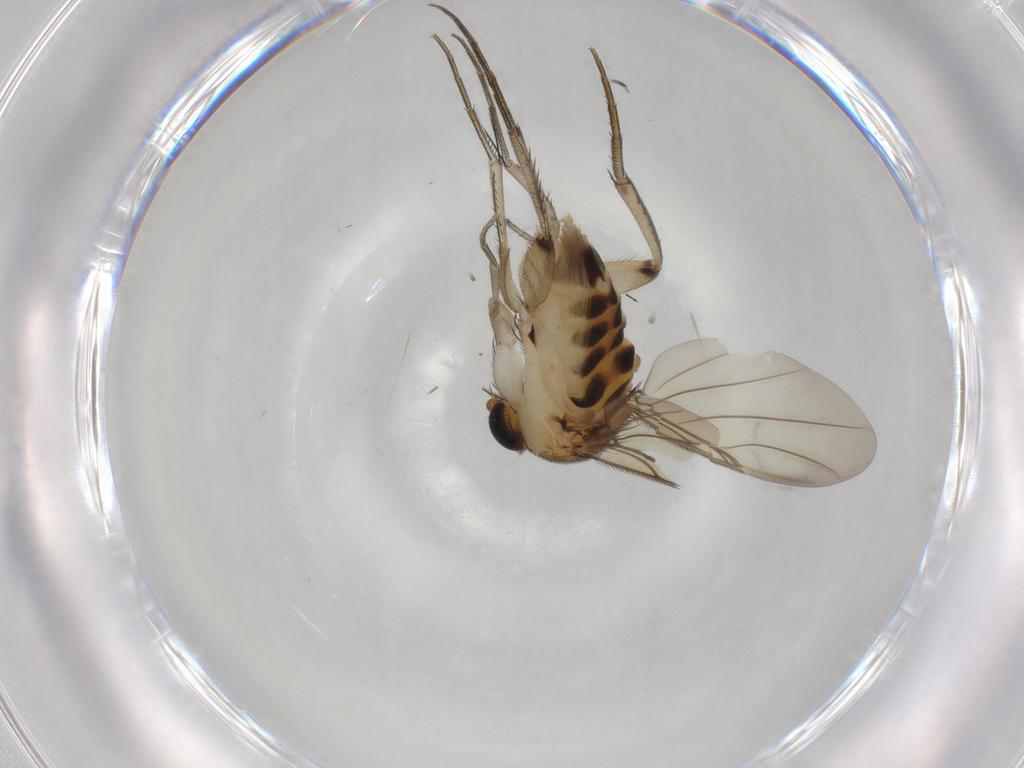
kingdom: Animalia
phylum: Arthropoda
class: Insecta
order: Diptera
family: Phoridae
